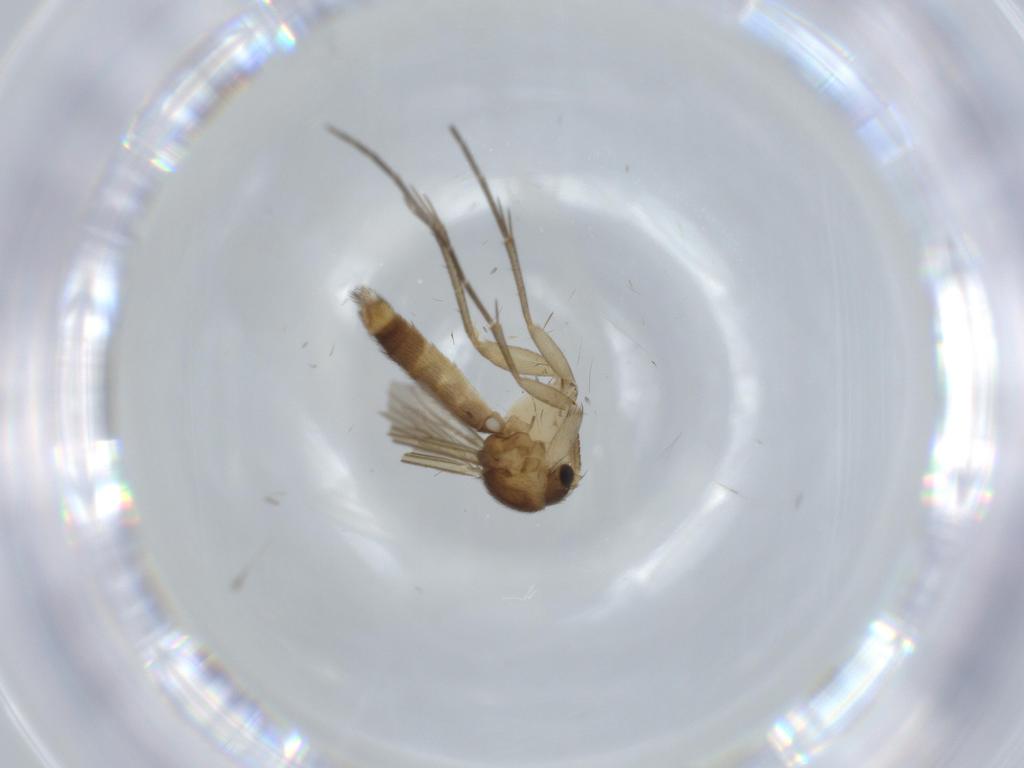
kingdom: Animalia
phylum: Arthropoda
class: Insecta
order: Diptera
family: Mycetophilidae
